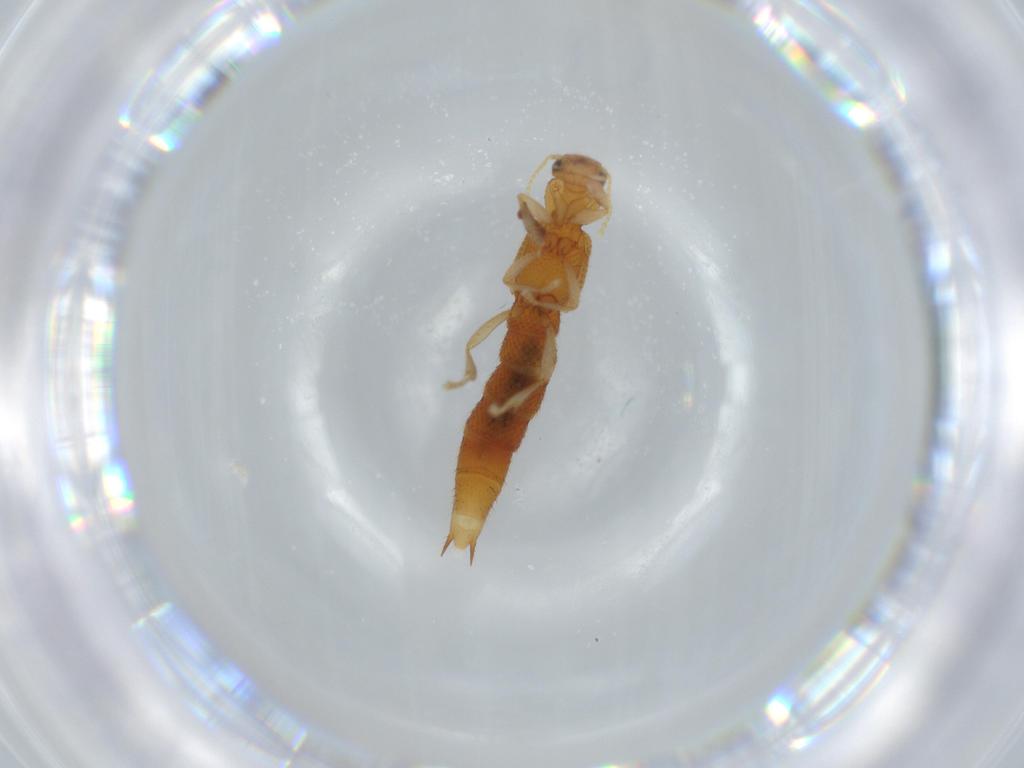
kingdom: Animalia
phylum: Arthropoda
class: Insecta
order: Coleoptera
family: Staphylinidae
